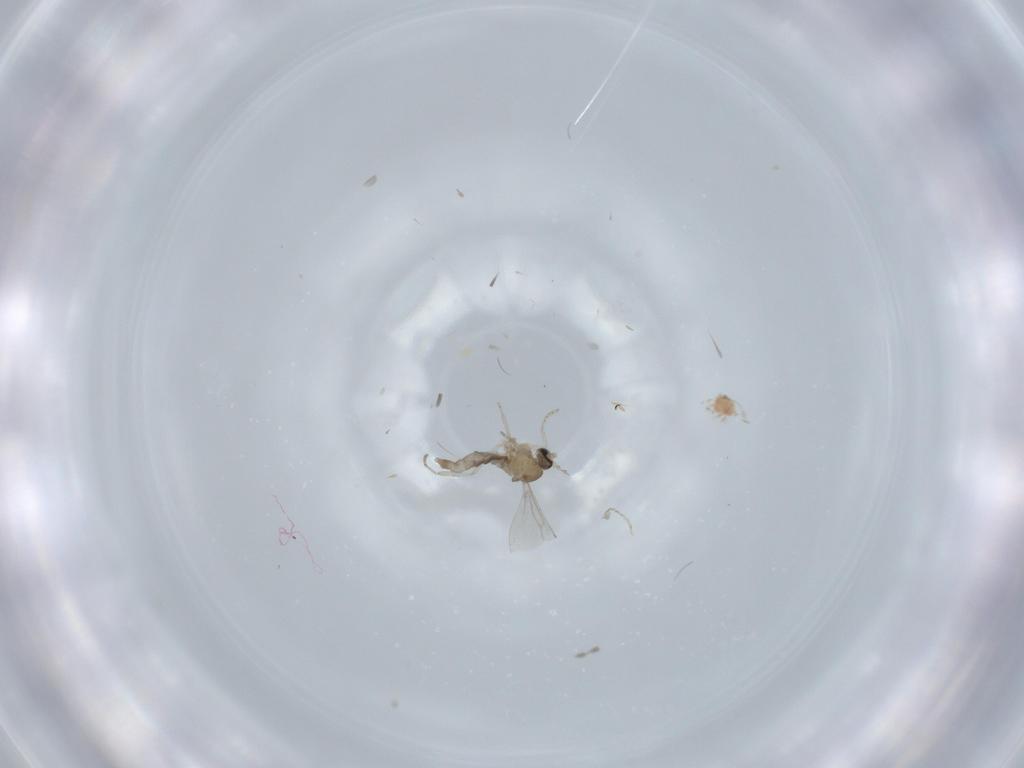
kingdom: Animalia
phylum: Arthropoda
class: Insecta
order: Diptera
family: Cecidomyiidae
